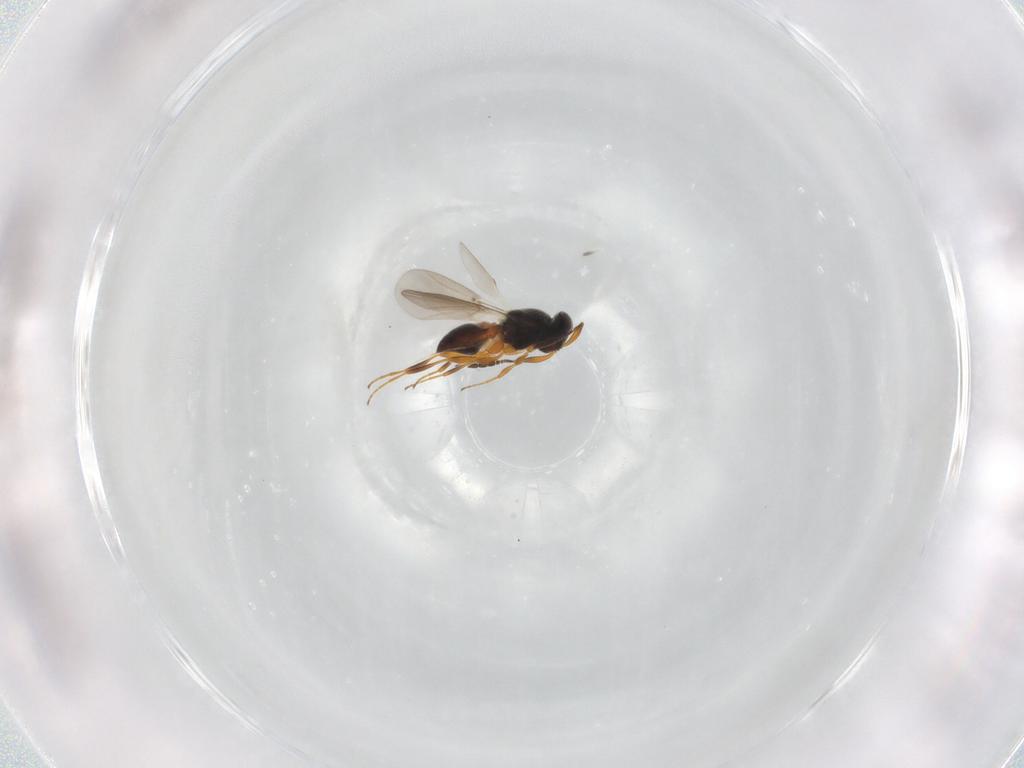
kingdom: Animalia
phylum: Arthropoda
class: Insecta
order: Hymenoptera
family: Platygastridae
